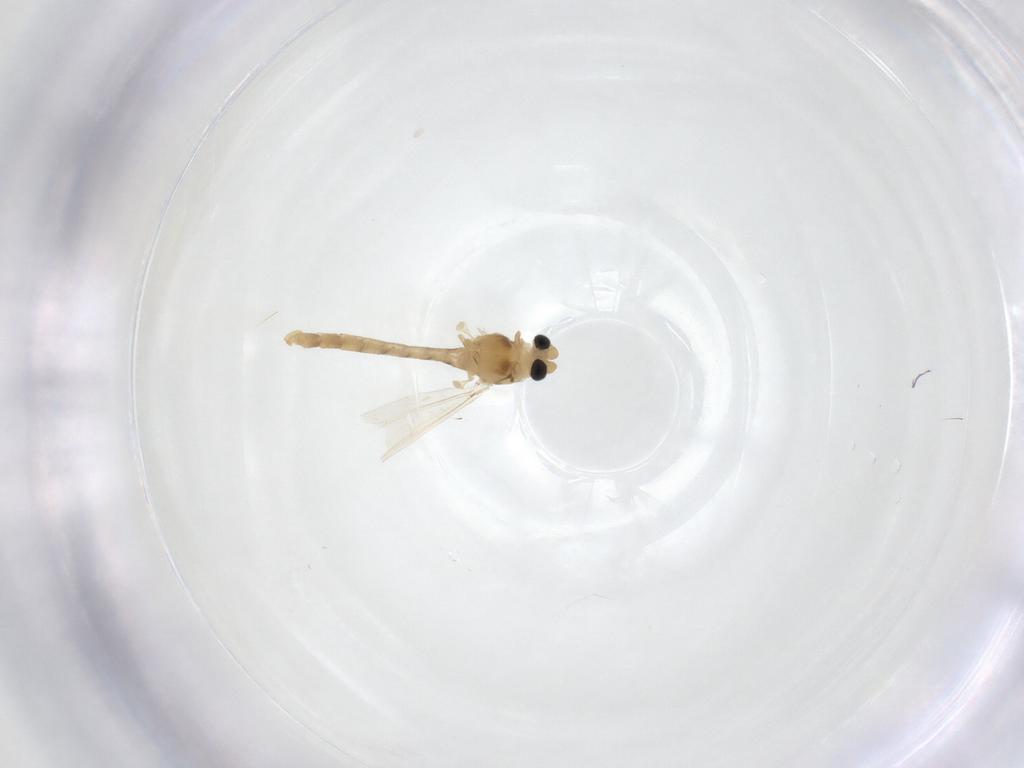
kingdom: Animalia
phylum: Arthropoda
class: Insecta
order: Diptera
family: Chironomidae
